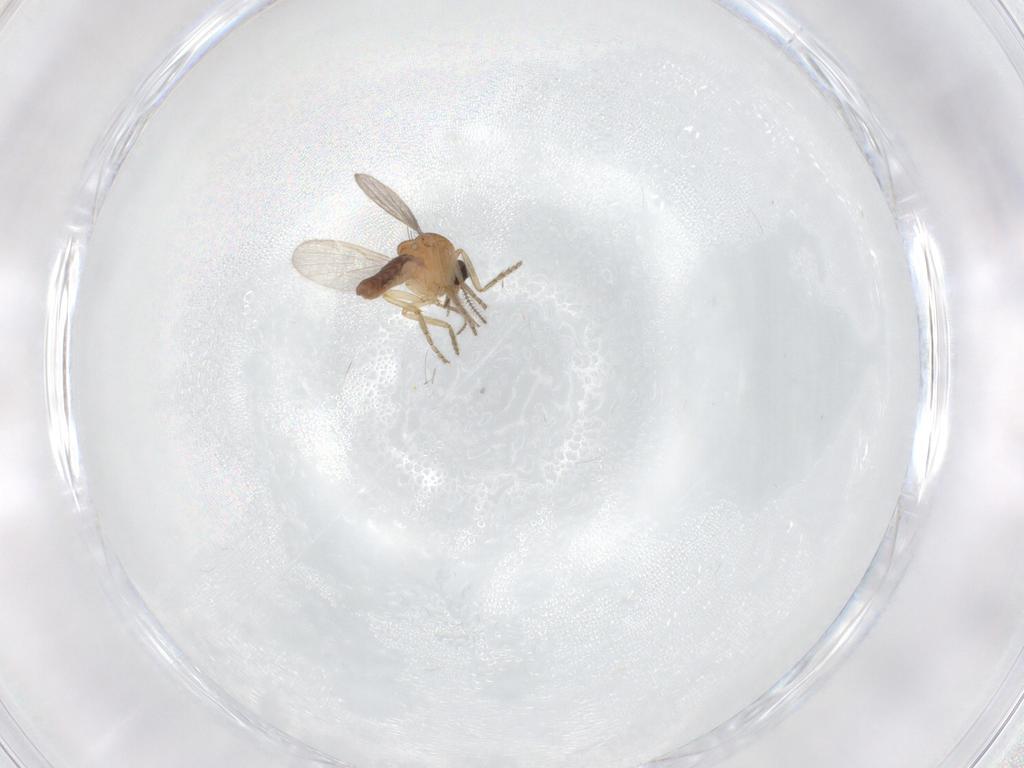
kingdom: Animalia
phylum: Arthropoda
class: Insecta
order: Diptera
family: Ceratopogonidae
